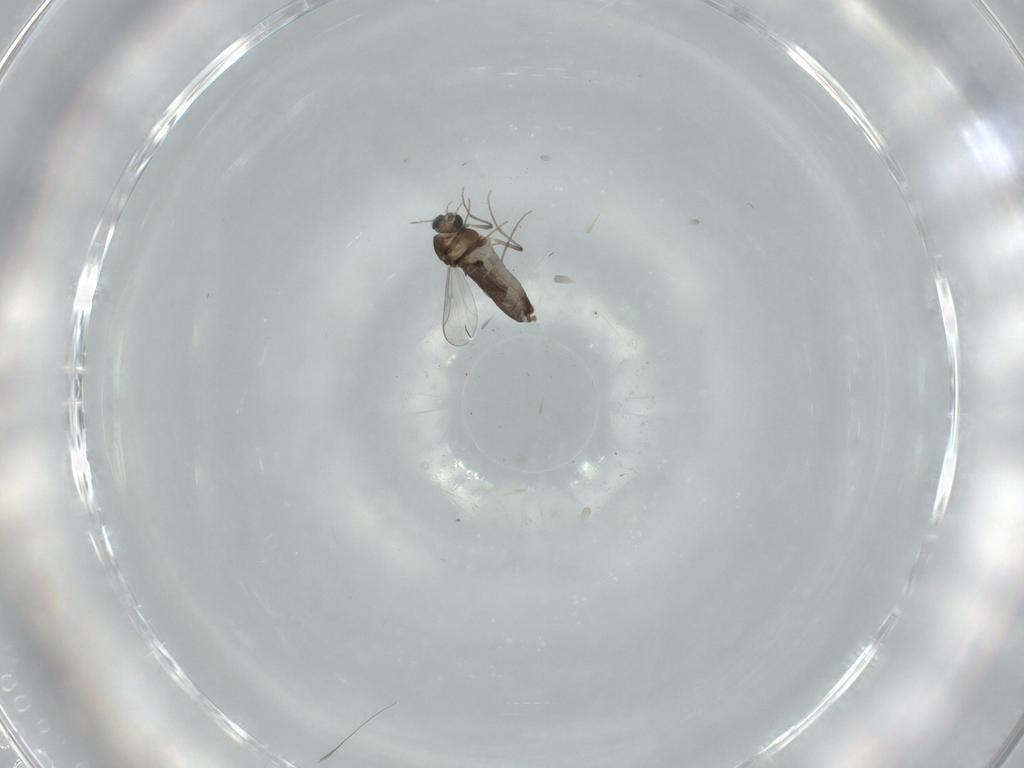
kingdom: Animalia
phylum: Arthropoda
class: Insecta
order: Diptera
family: Chironomidae
